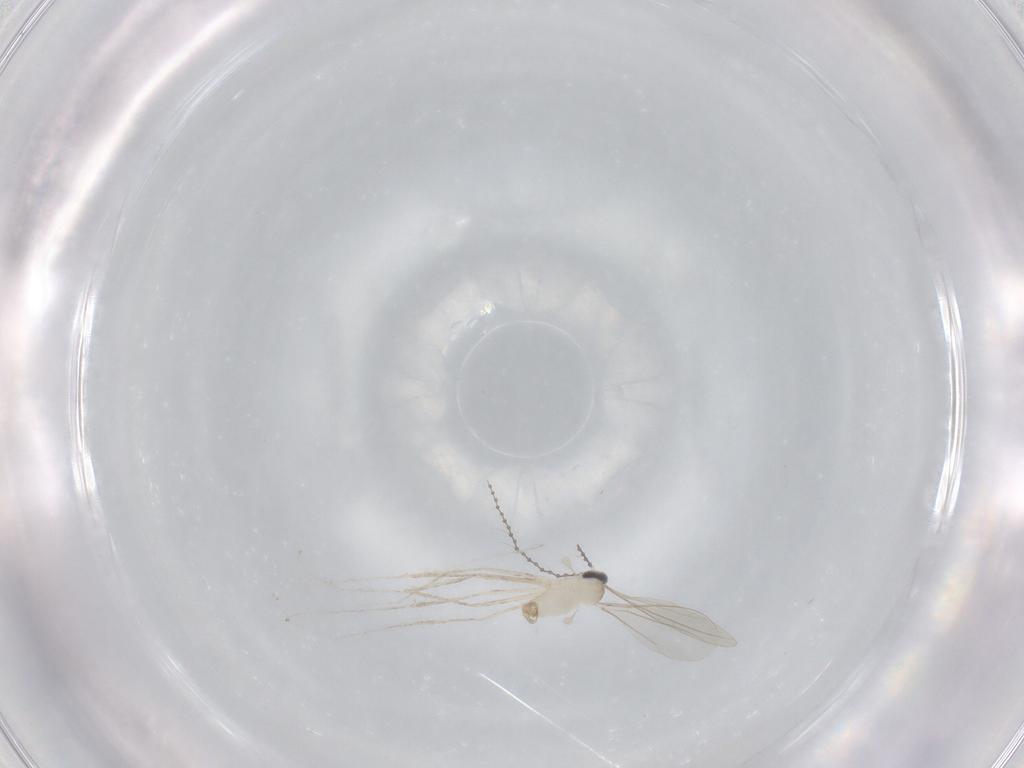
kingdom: Animalia
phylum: Arthropoda
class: Insecta
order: Diptera
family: Cecidomyiidae
